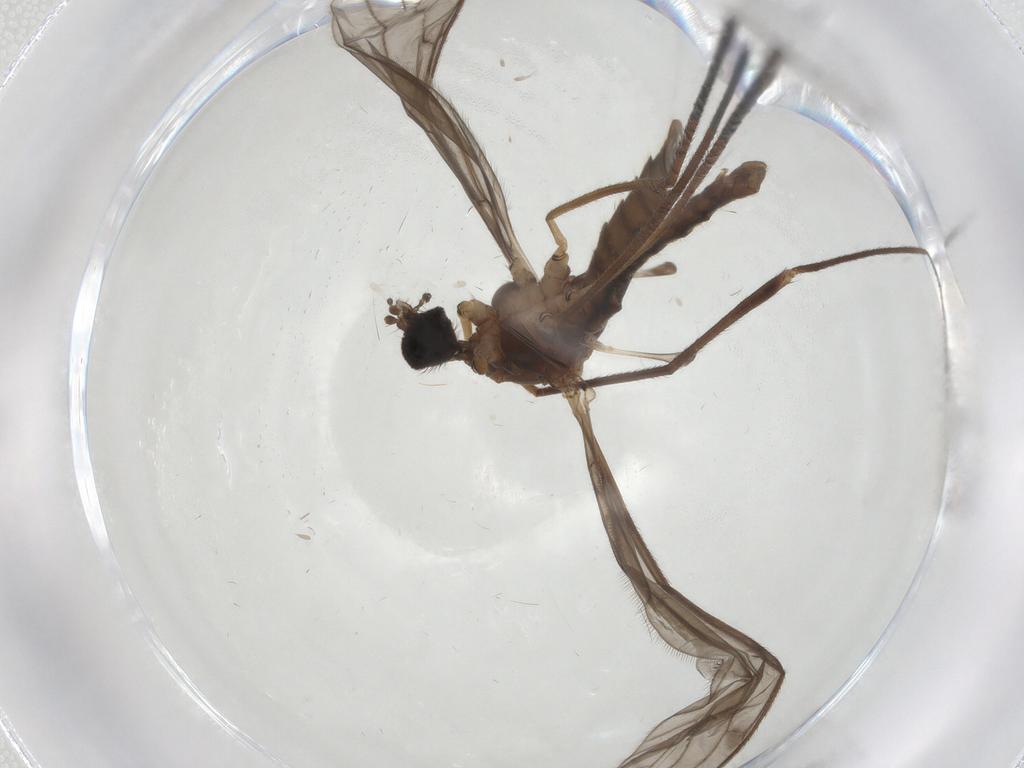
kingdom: Animalia
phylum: Arthropoda
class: Insecta
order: Diptera
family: Limoniidae
